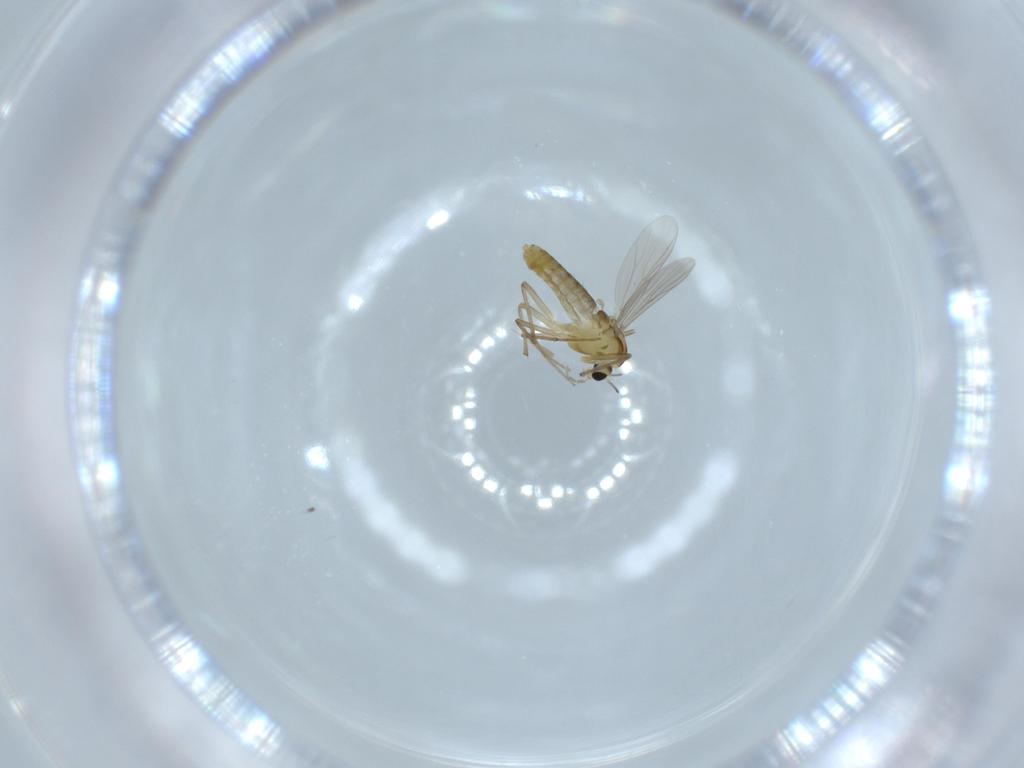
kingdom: Animalia
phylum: Arthropoda
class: Insecta
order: Diptera
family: Chironomidae
